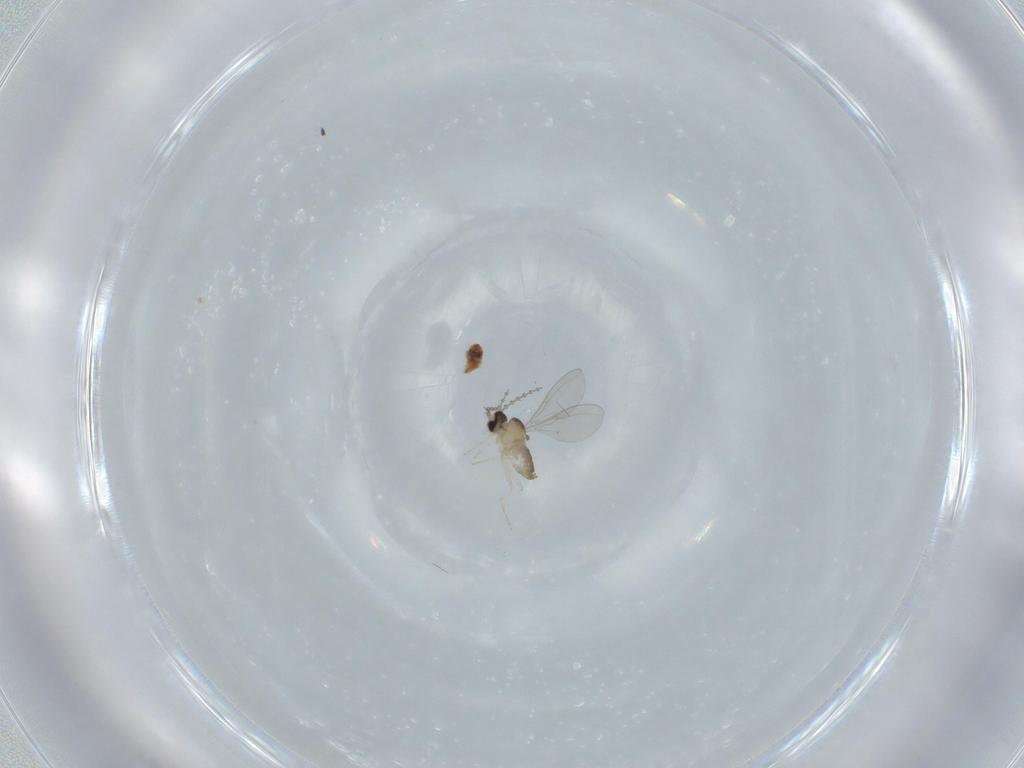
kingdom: Animalia
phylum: Arthropoda
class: Insecta
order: Diptera
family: Cecidomyiidae
